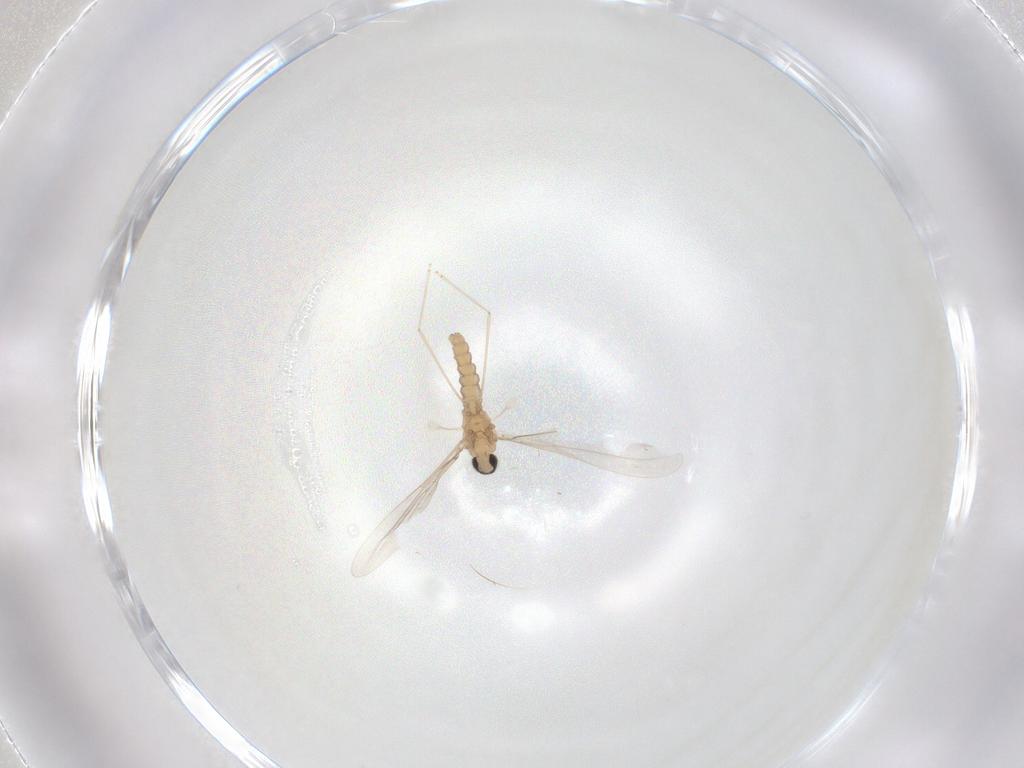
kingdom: Animalia
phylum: Arthropoda
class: Insecta
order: Diptera
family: Cecidomyiidae
